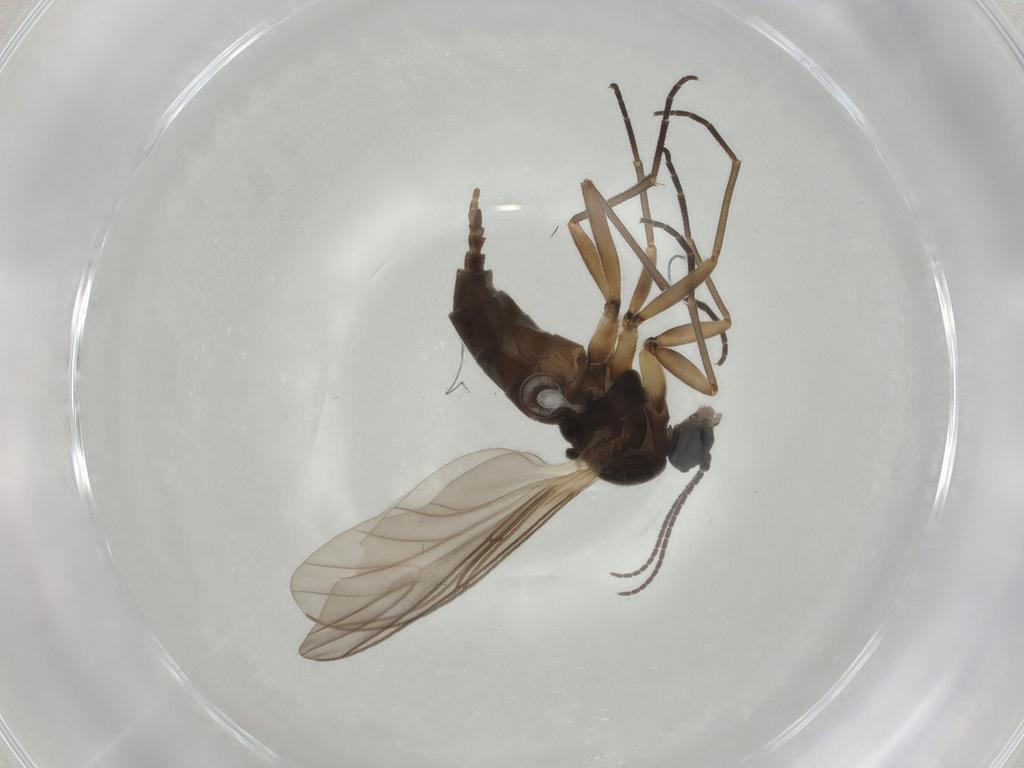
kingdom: Animalia
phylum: Arthropoda
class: Insecta
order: Diptera
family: Sciaridae
